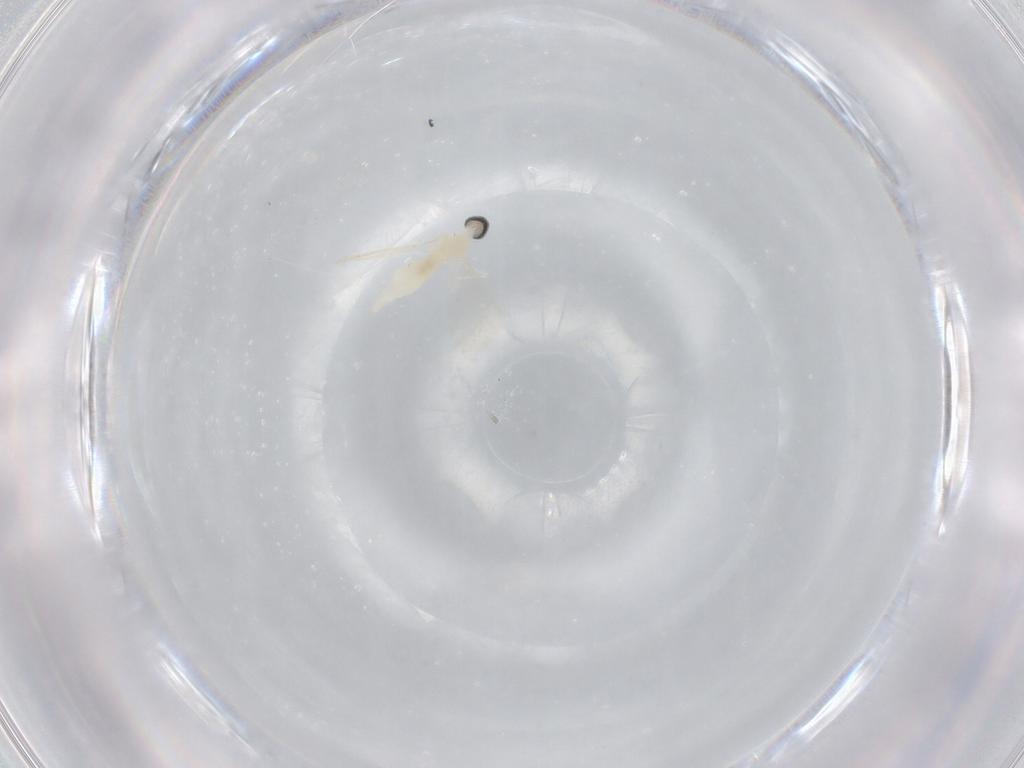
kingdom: Animalia
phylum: Arthropoda
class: Insecta
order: Diptera
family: Cecidomyiidae
